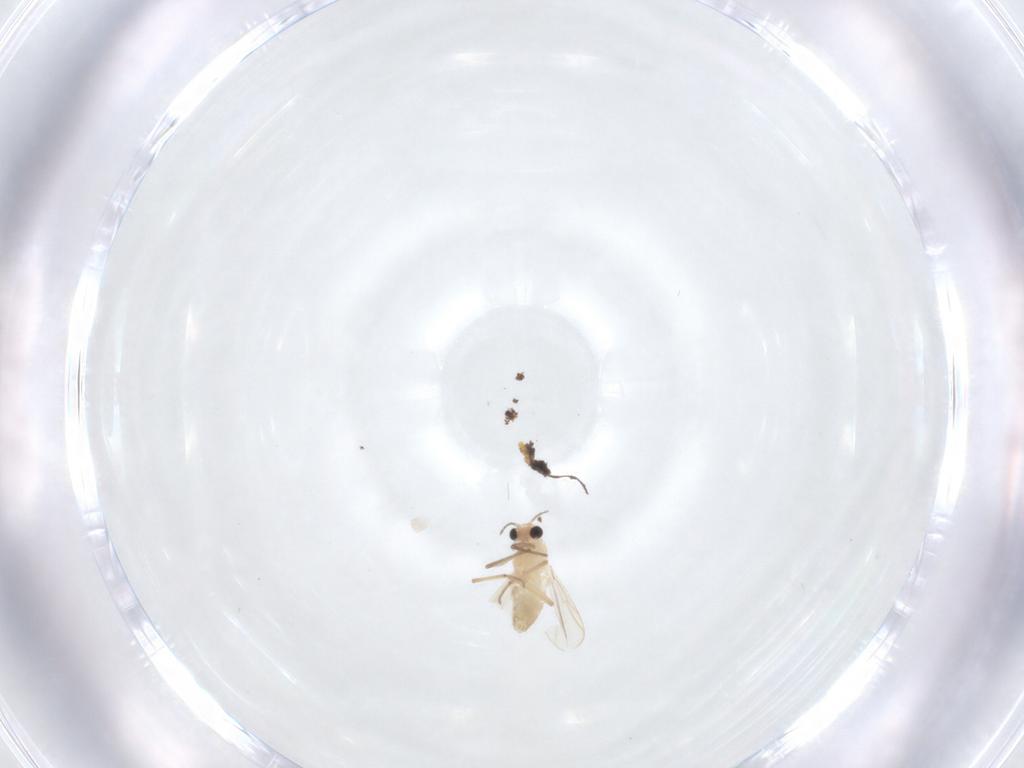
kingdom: Animalia
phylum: Arthropoda
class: Insecta
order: Diptera
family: Chironomidae
